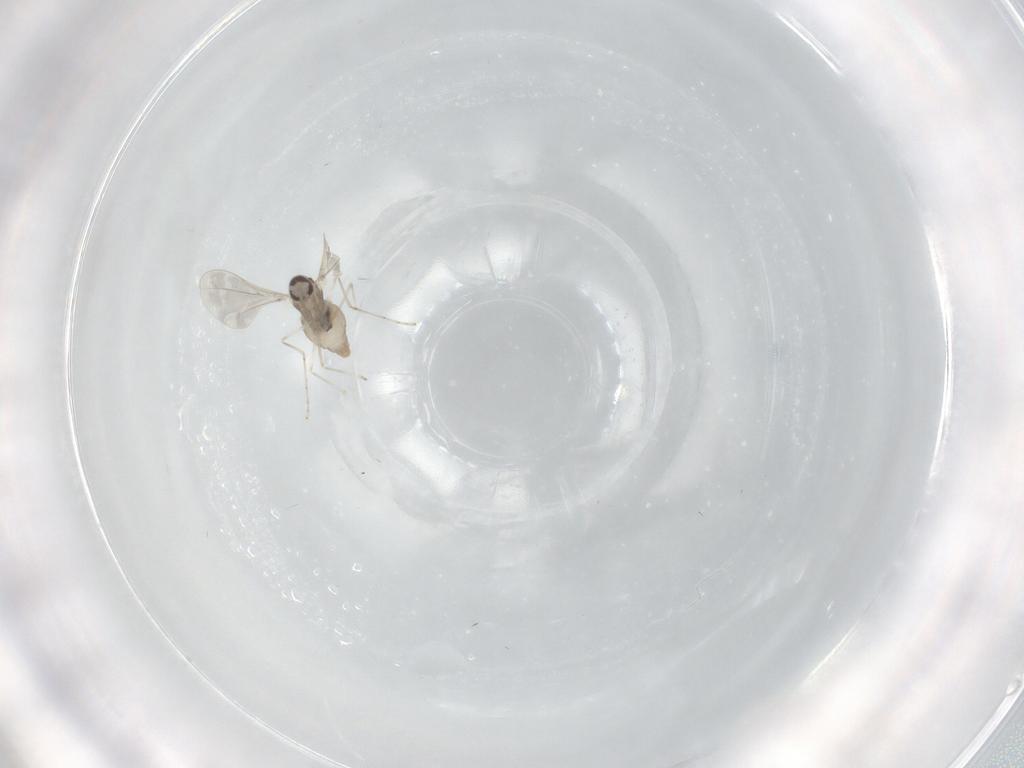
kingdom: Animalia
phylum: Arthropoda
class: Insecta
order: Diptera
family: Cecidomyiidae
